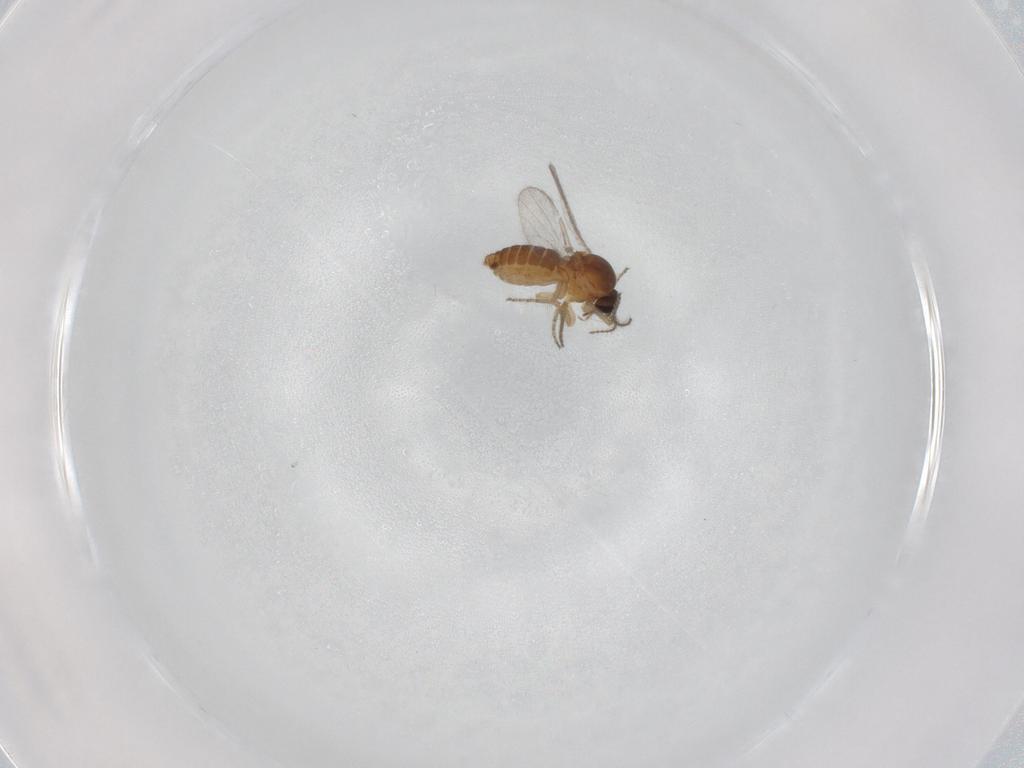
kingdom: Animalia
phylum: Arthropoda
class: Insecta
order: Diptera
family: Ceratopogonidae
